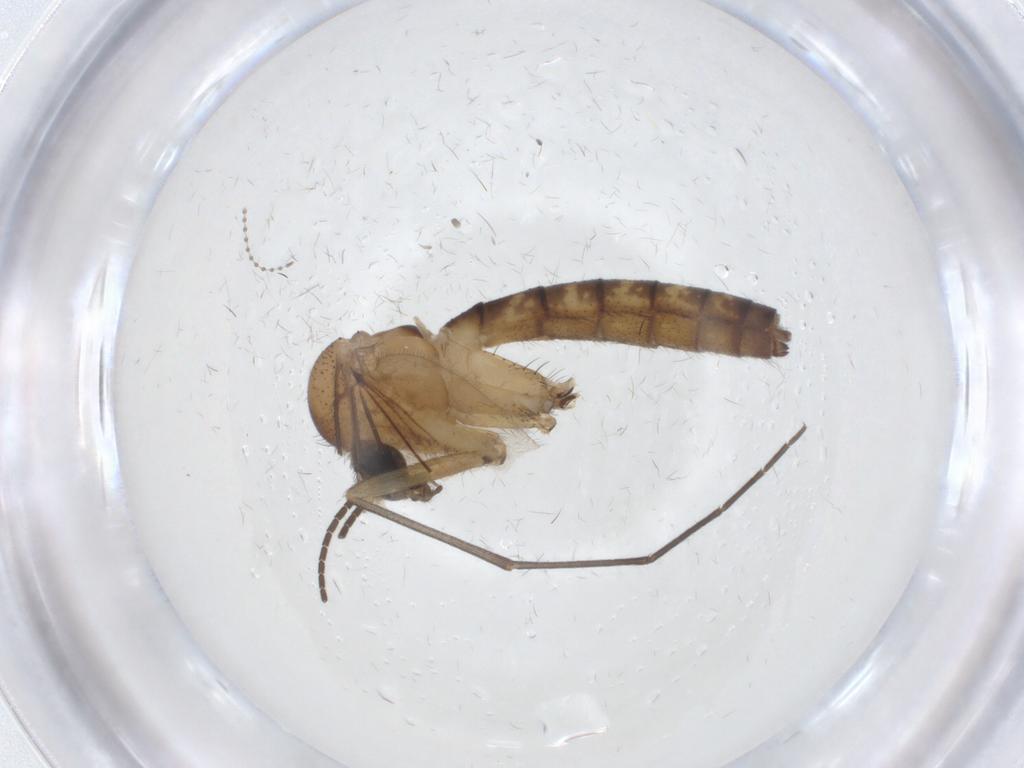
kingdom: Animalia
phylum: Arthropoda
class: Insecta
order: Diptera
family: Mycetophilidae
